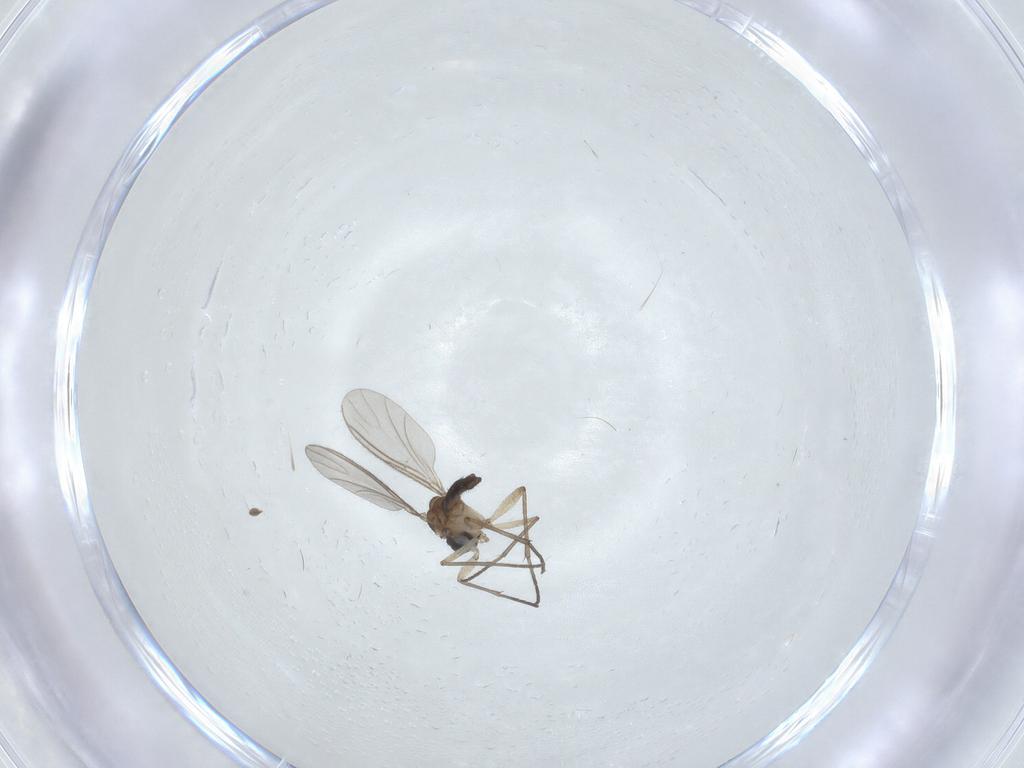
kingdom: Animalia
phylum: Arthropoda
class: Insecta
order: Diptera
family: Sciaridae
